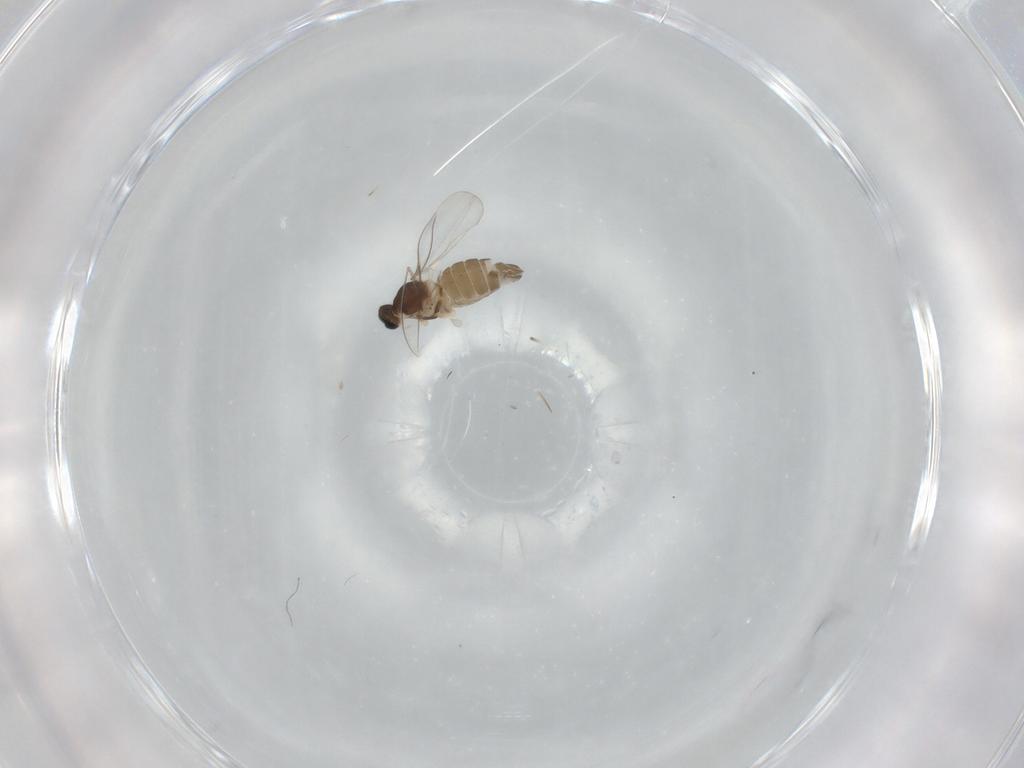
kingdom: Animalia
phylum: Arthropoda
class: Insecta
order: Diptera
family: Cecidomyiidae
